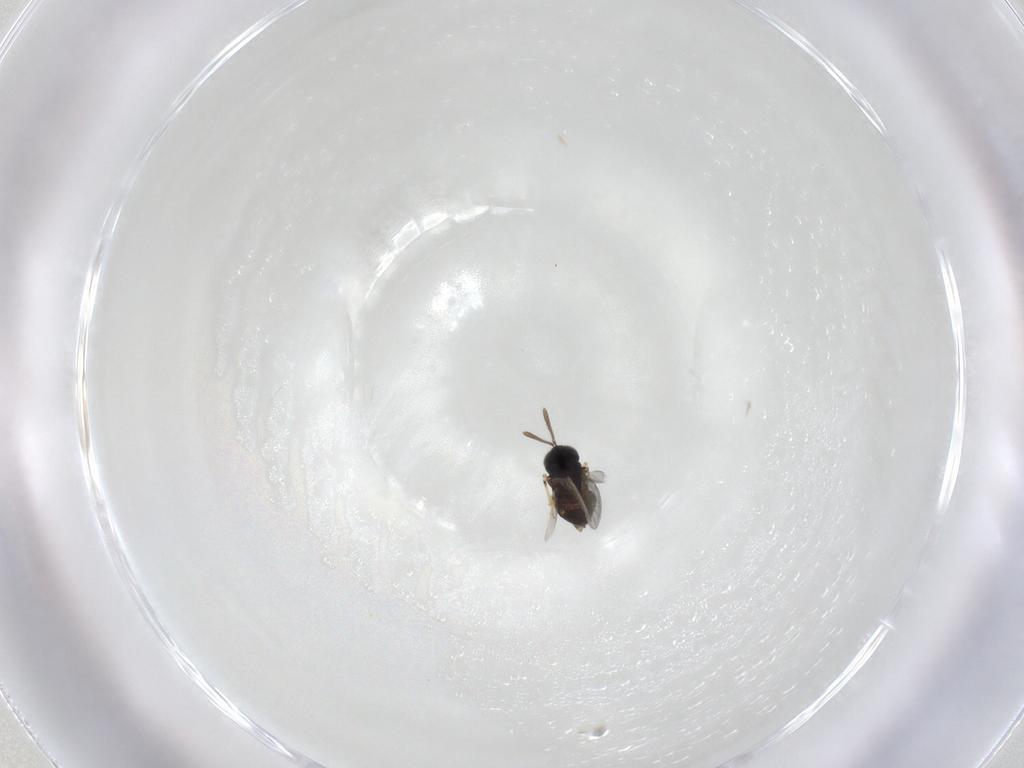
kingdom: Animalia
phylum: Arthropoda
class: Insecta
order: Hymenoptera
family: Encyrtidae
